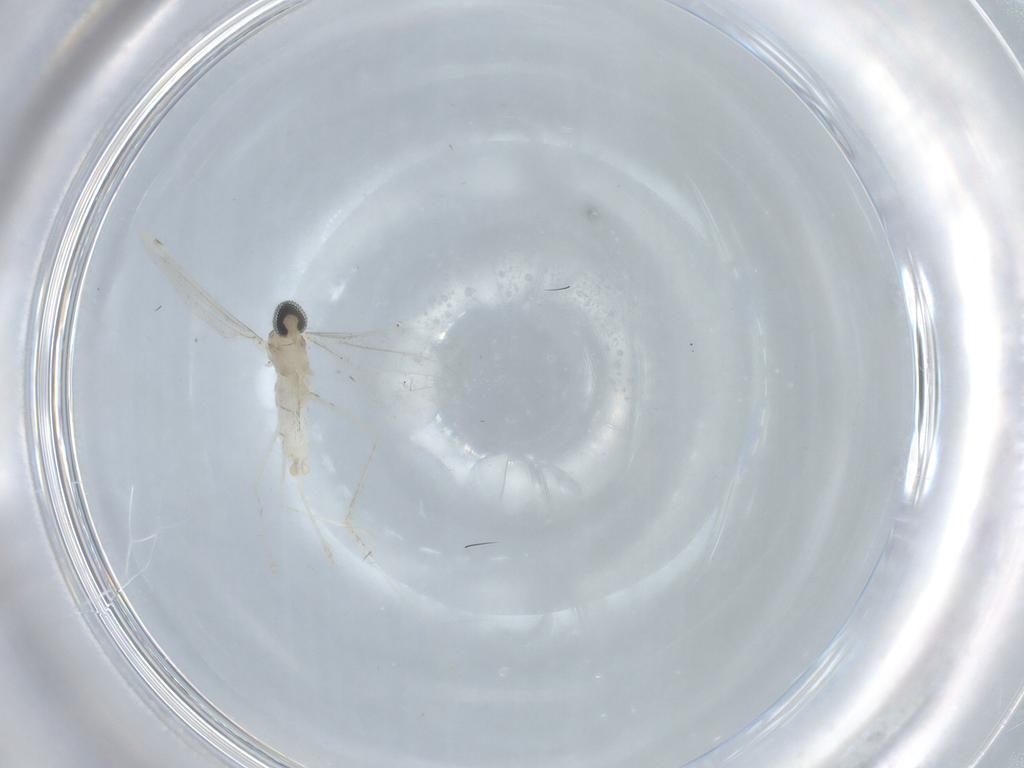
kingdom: Animalia
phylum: Arthropoda
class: Insecta
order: Diptera
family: Cecidomyiidae
